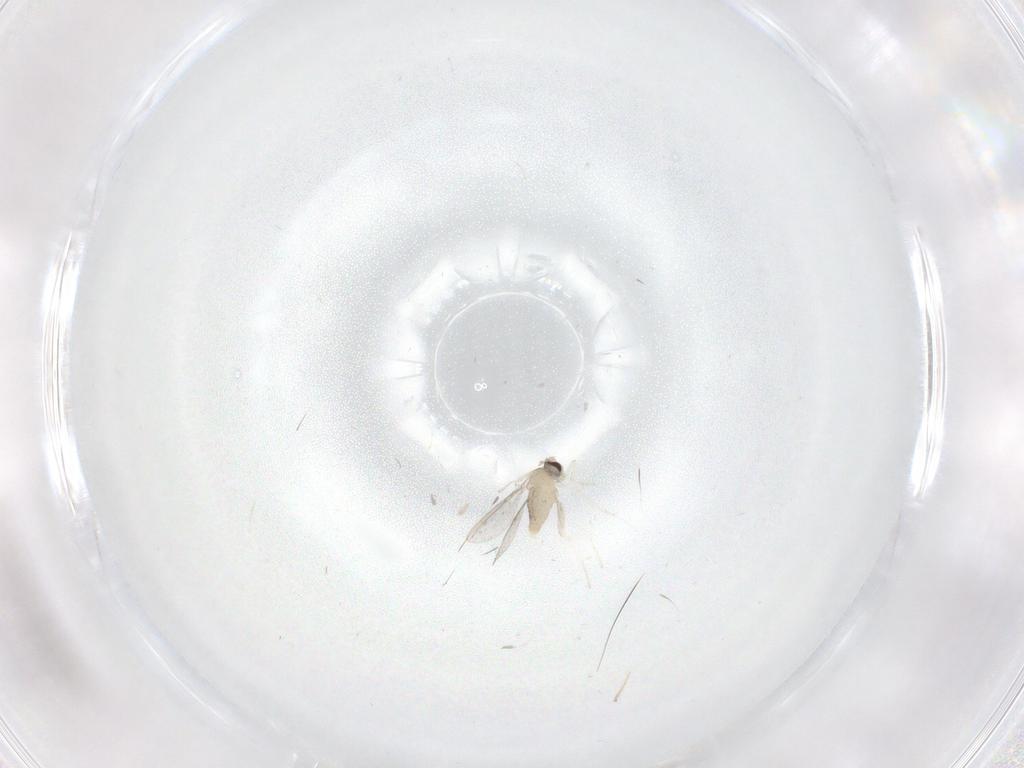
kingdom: Animalia
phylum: Arthropoda
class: Insecta
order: Diptera
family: Cecidomyiidae
